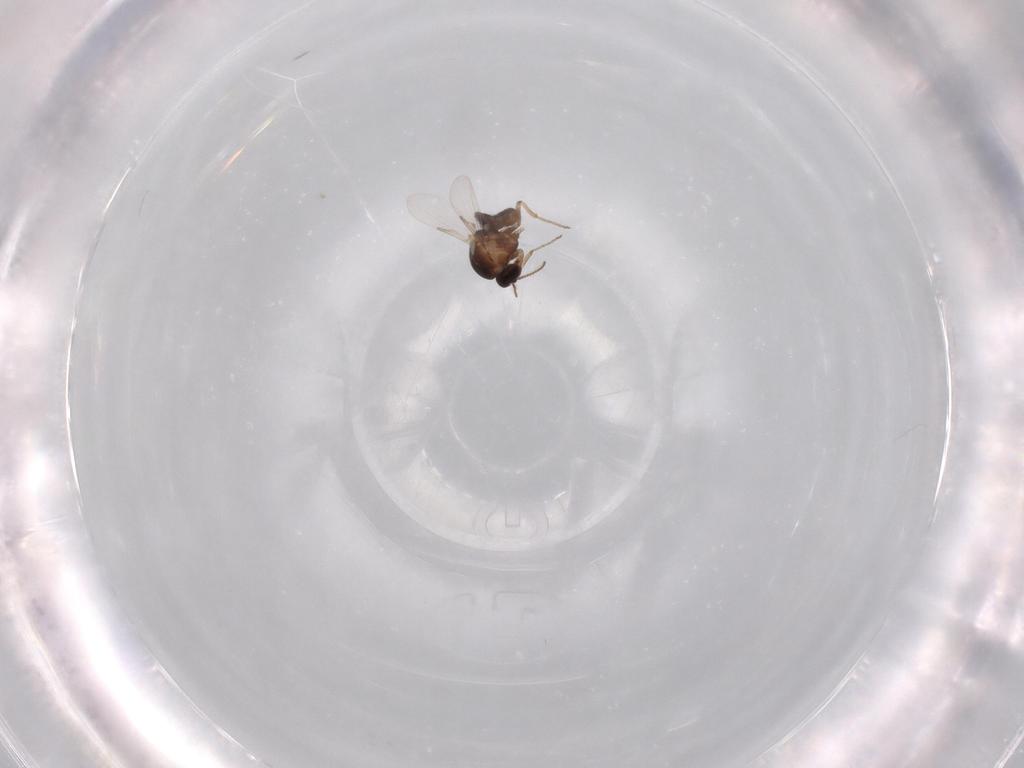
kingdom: Animalia
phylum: Arthropoda
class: Insecta
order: Diptera
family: Ceratopogonidae
